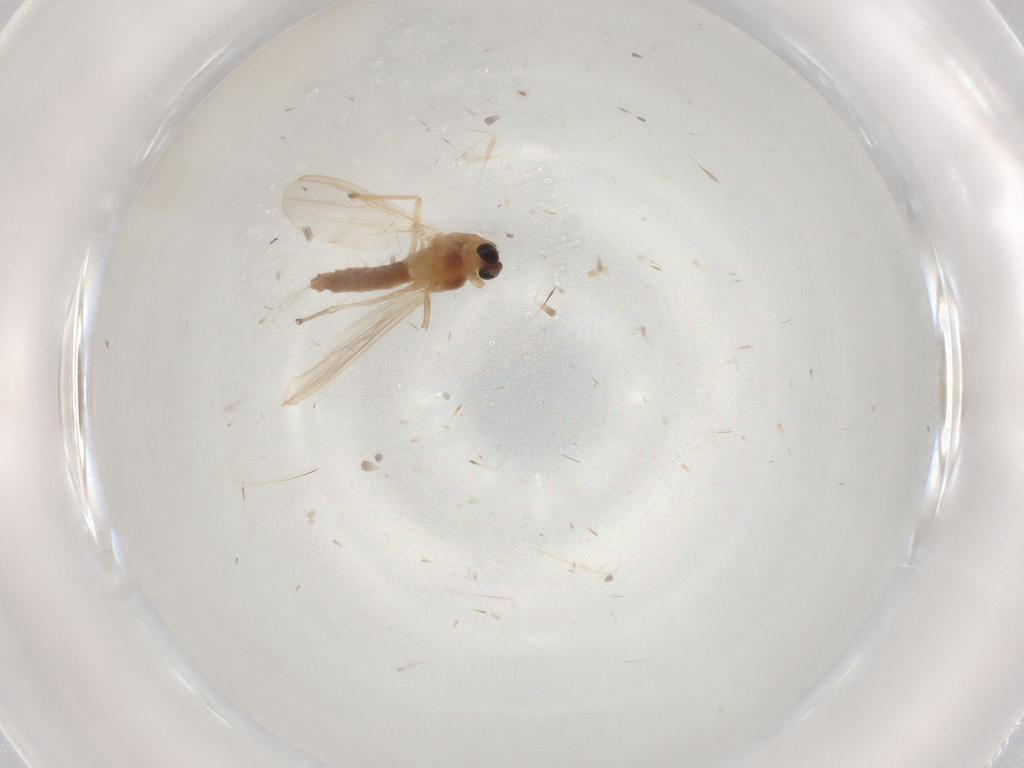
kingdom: Animalia
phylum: Arthropoda
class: Insecta
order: Diptera
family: Chironomidae
